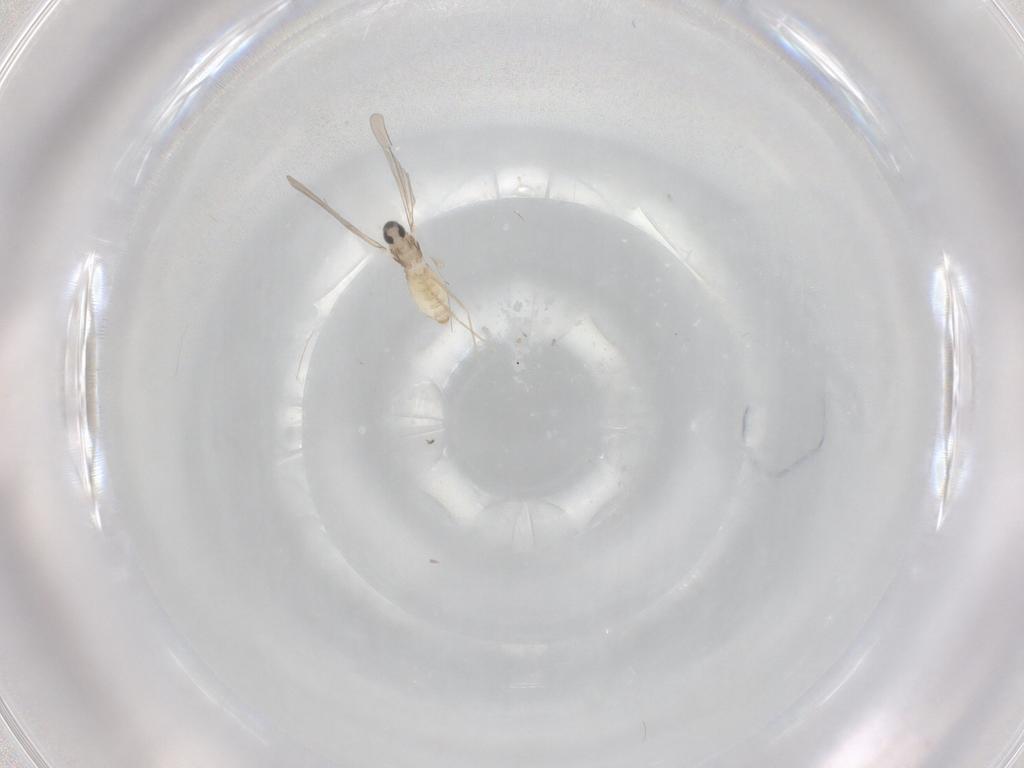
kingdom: Animalia
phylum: Arthropoda
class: Insecta
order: Diptera
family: Cecidomyiidae
